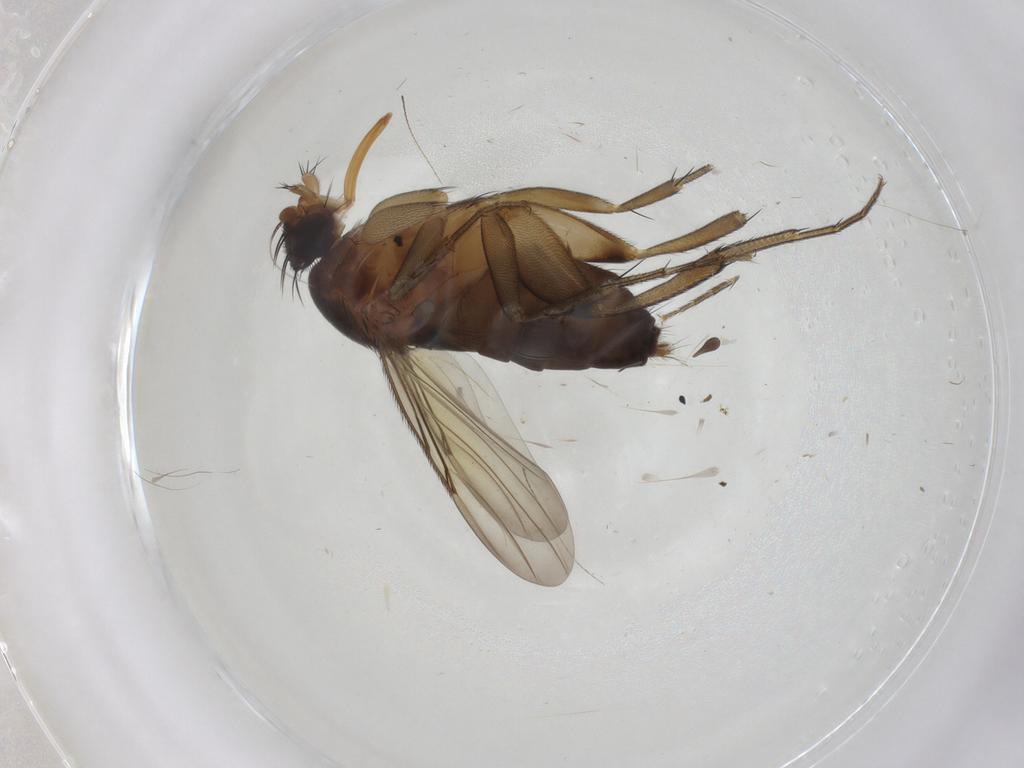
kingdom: Animalia
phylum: Arthropoda
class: Insecta
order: Diptera
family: Phoridae
